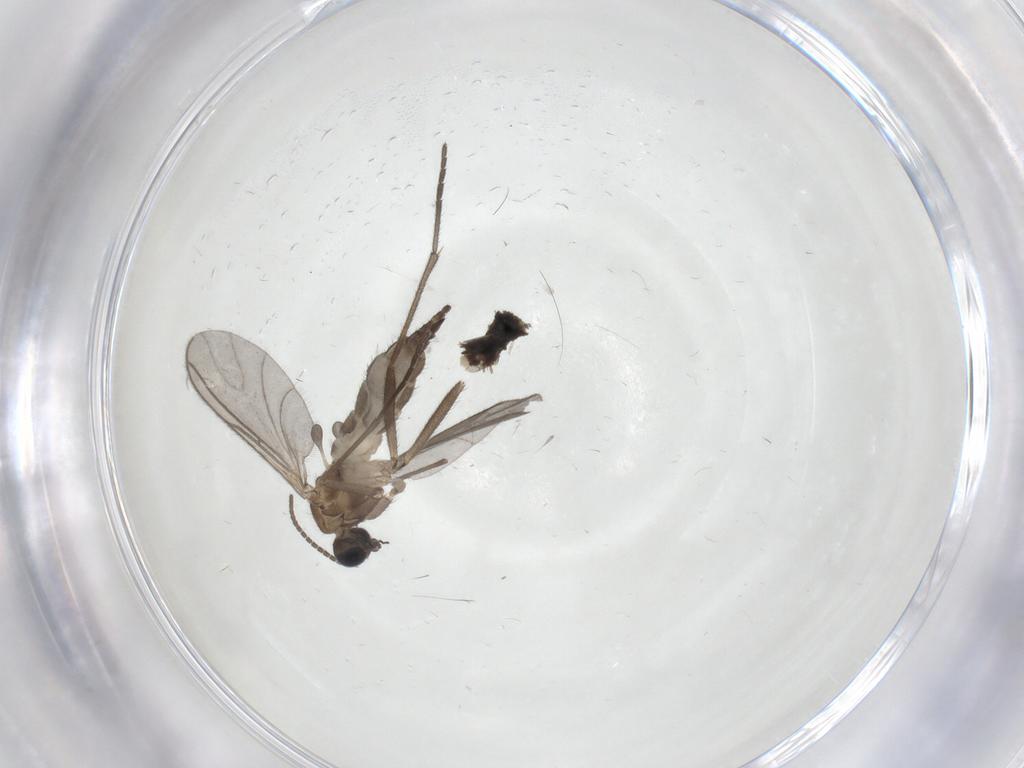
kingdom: Animalia
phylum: Arthropoda
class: Insecta
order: Diptera
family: Sciaridae
